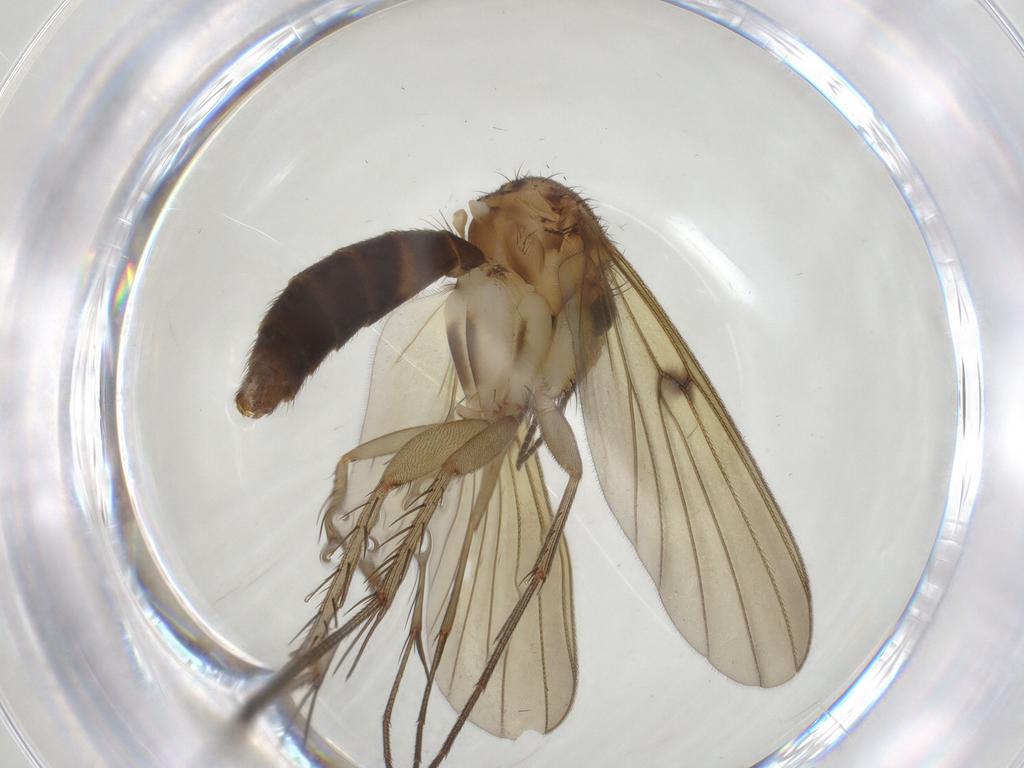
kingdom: Animalia
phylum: Arthropoda
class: Insecta
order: Diptera
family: Mycetophilidae
